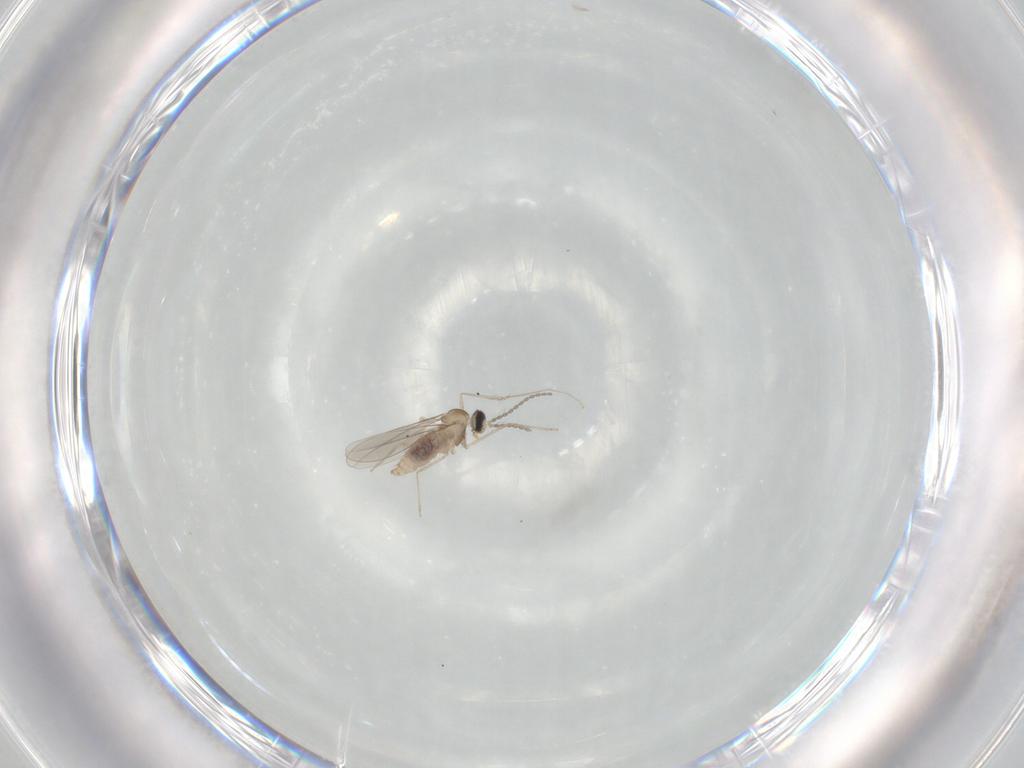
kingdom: Animalia
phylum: Arthropoda
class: Insecta
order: Diptera
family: Cecidomyiidae
